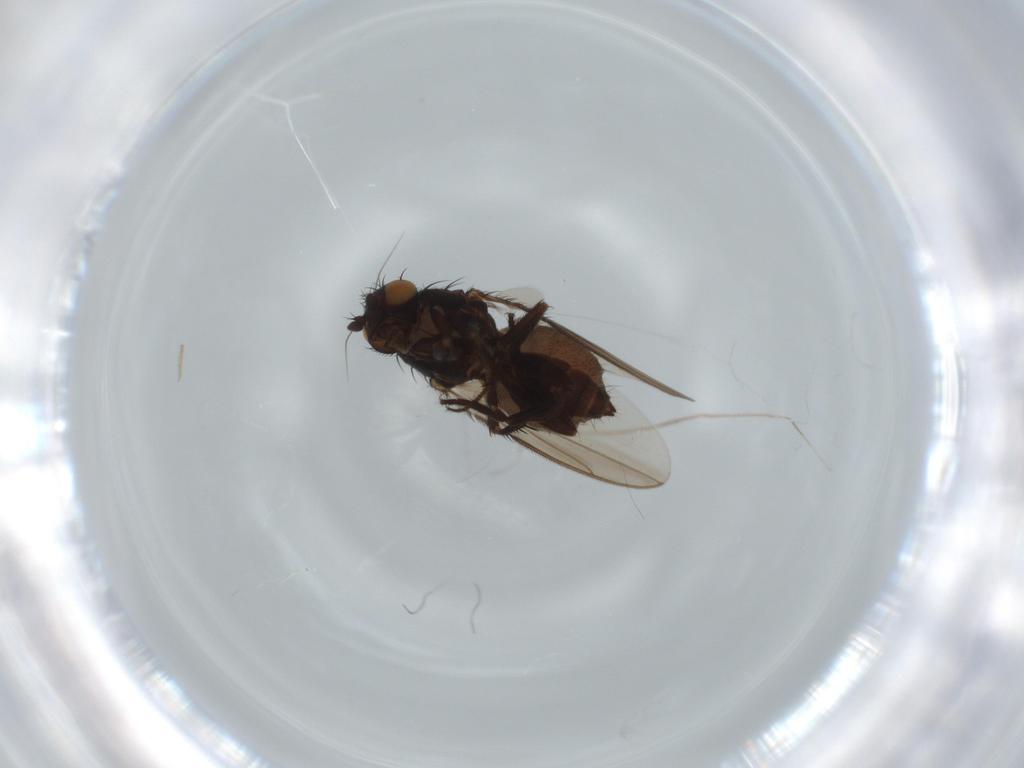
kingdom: Animalia
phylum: Arthropoda
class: Insecta
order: Diptera
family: Sphaeroceridae
